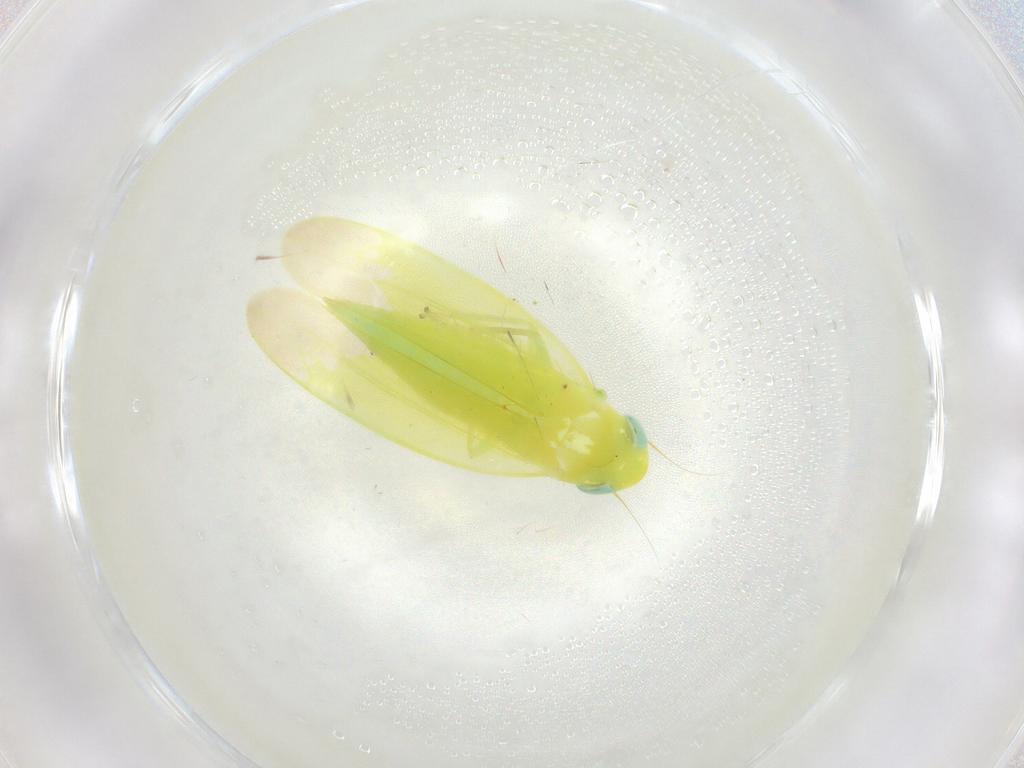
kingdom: Animalia
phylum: Arthropoda
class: Insecta
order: Hemiptera
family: Cicadellidae
